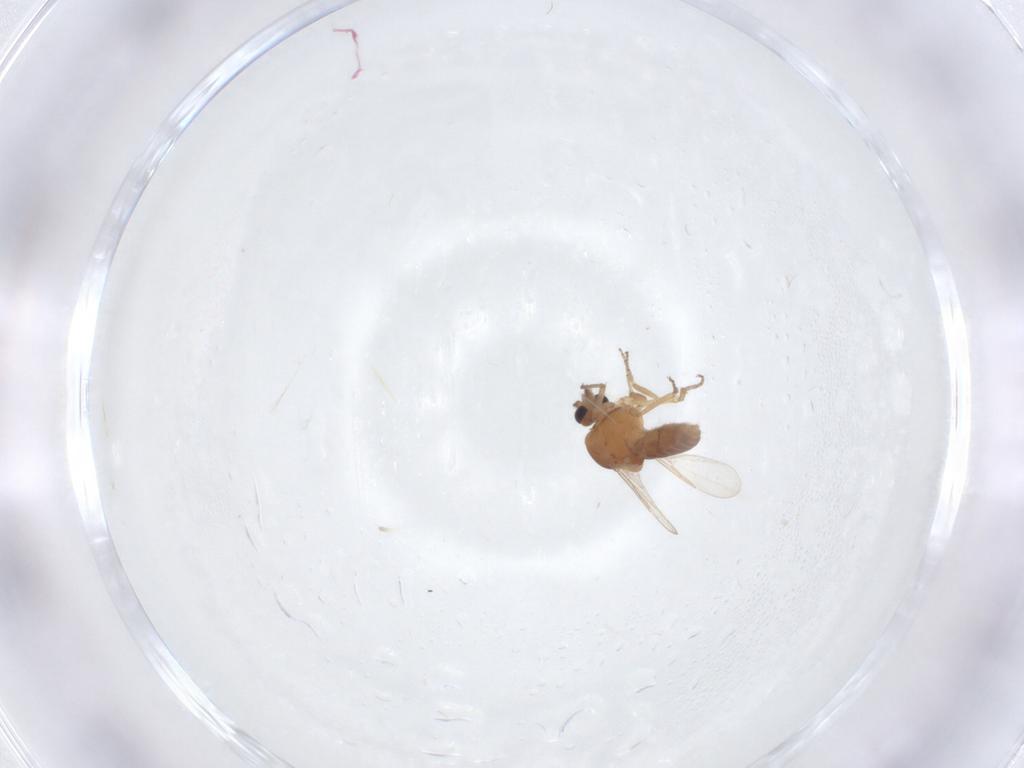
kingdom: Animalia
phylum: Arthropoda
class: Insecta
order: Diptera
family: Ceratopogonidae
